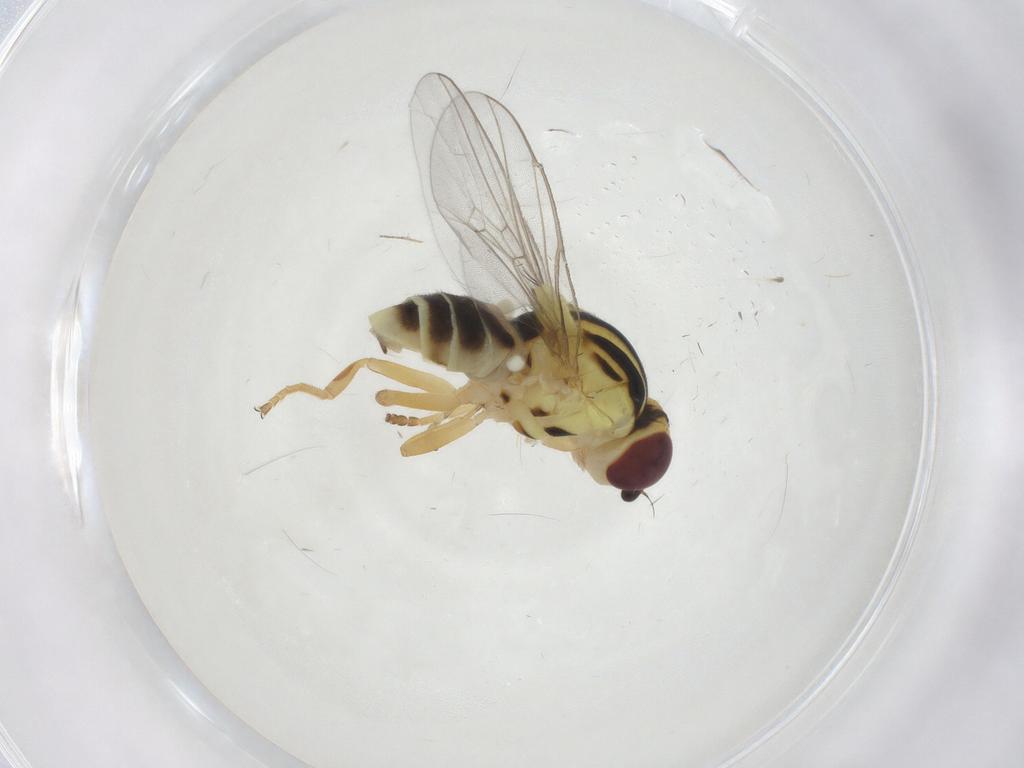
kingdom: Animalia
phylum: Arthropoda
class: Insecta
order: Diptera
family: Chloropidae
